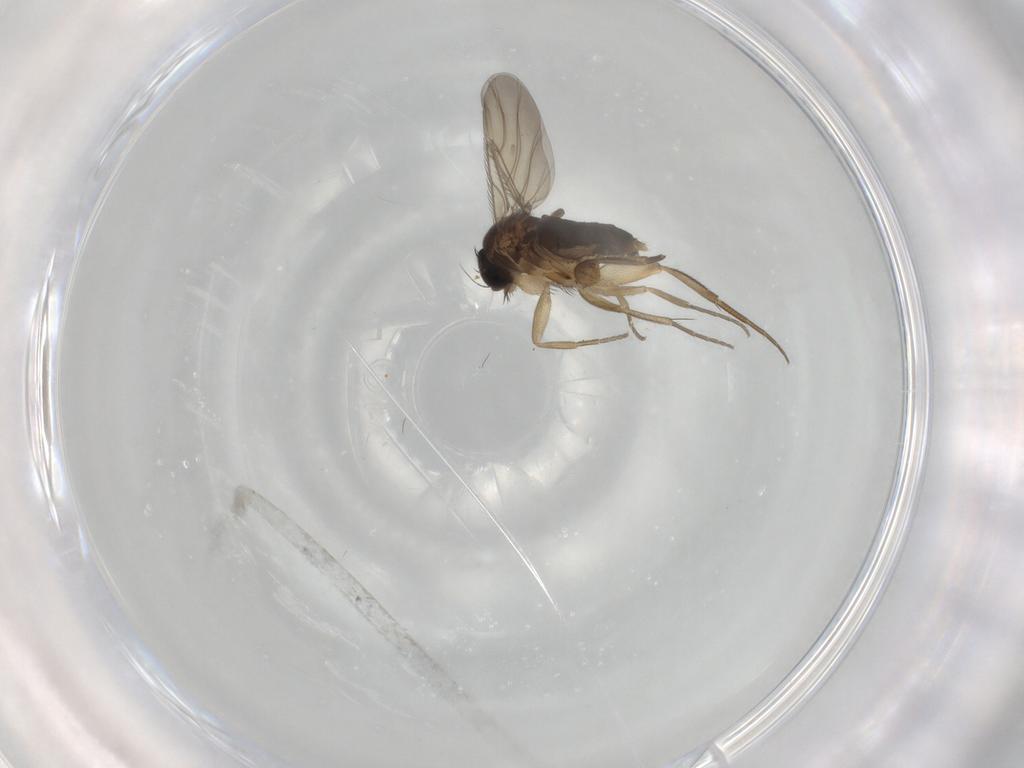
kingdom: Animalia
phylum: Arthropoda
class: Insecta
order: Diptera
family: Phoridae
